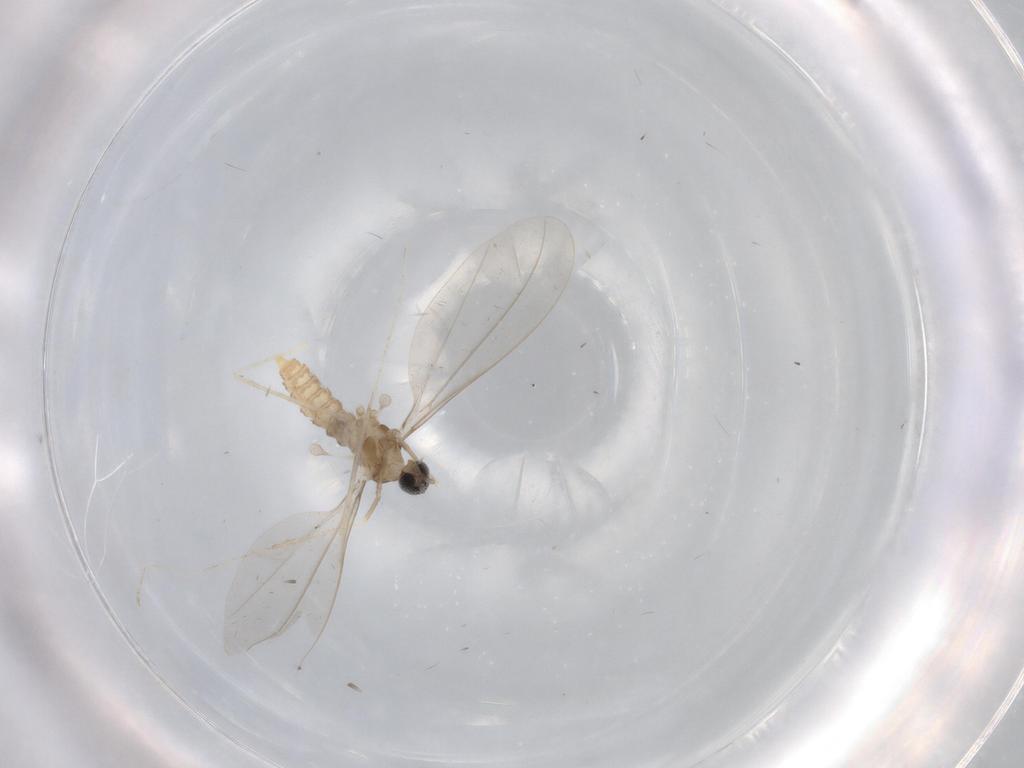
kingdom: Animalia
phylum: Arthropoda
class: Insecta
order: Diptera
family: Cecidomyiidae
